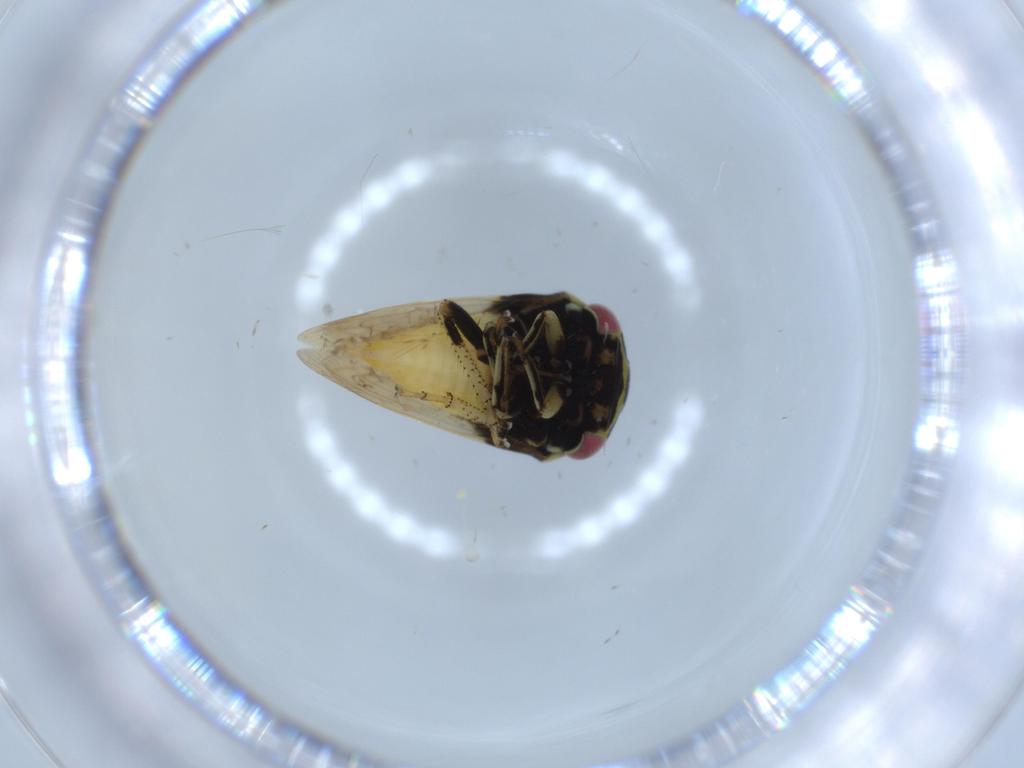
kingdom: Animalia
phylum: Arthropoda
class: Insecta
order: Hemiptera
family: Membracidae
